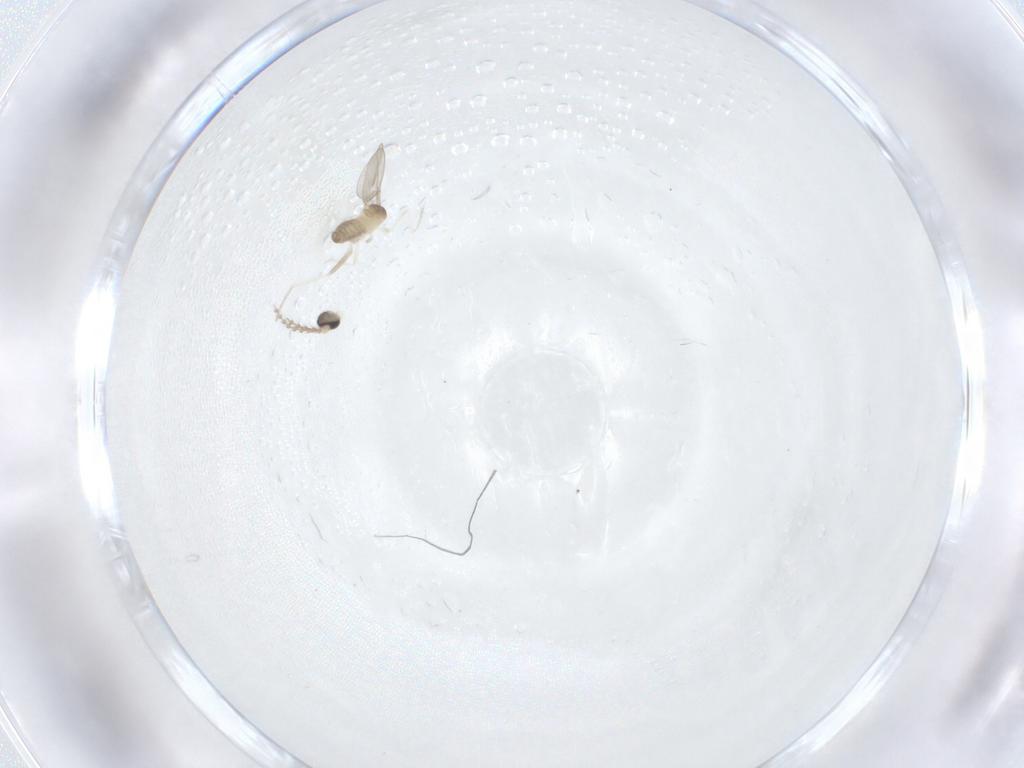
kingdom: Animalia
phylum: Arthropoda
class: Insecta
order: Diptera
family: Cecidomyiidae
